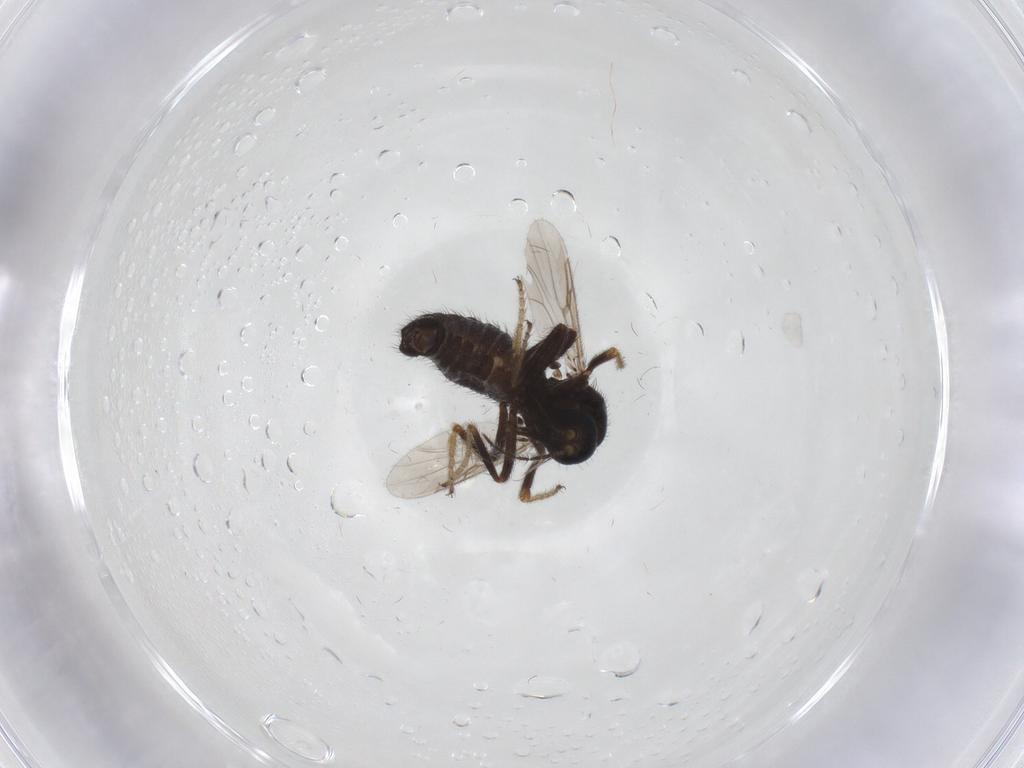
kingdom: Animalia
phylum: Arthropoda
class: Insecta
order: Diptera
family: Ceratopogonidae
